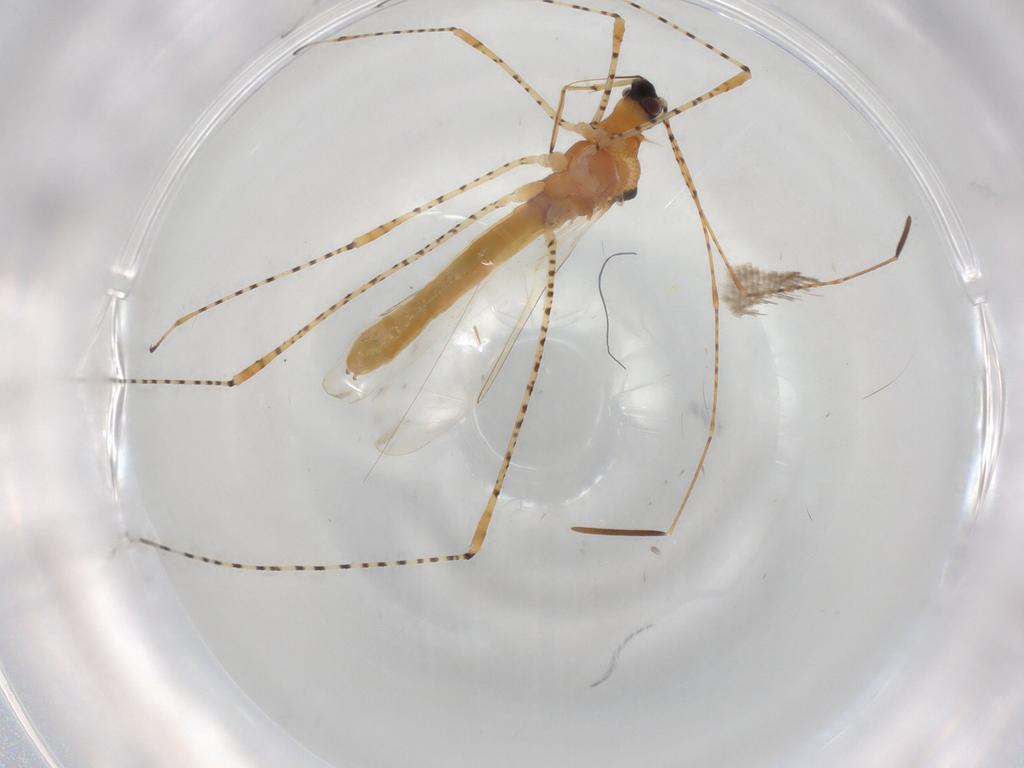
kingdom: Animalia
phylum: Arthropoda
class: Insecta
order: Hemiptera
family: Berytidae
